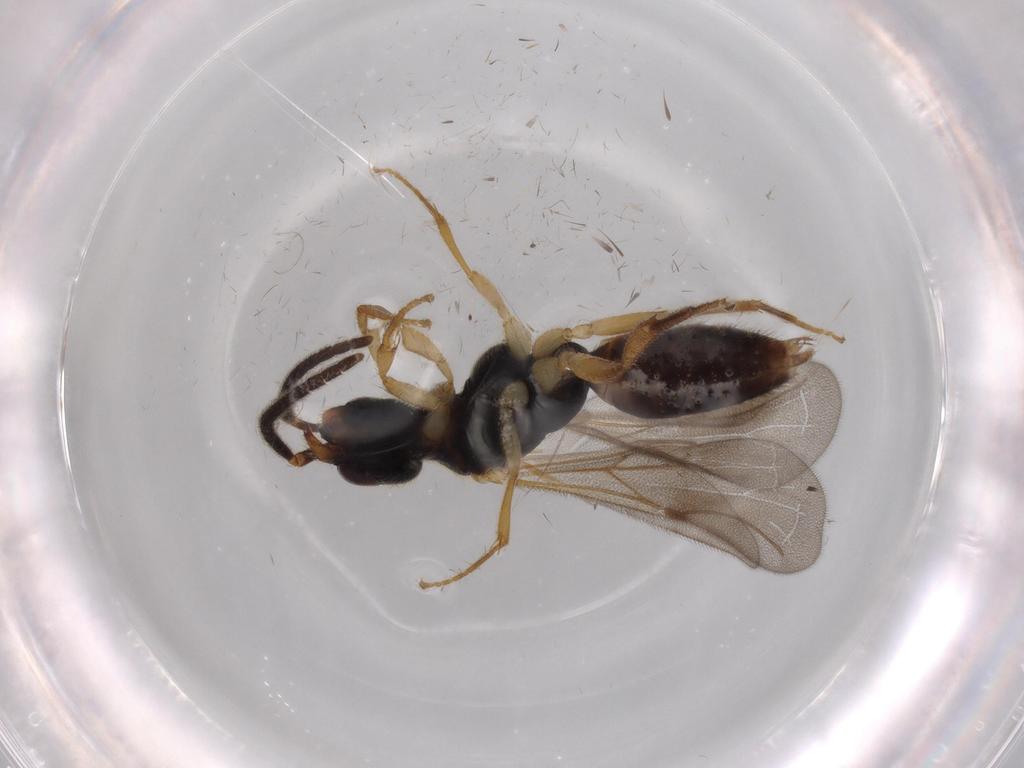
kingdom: Animalia
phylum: Arthropoda
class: Insecta
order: Hymenoptera
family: Bethylidae
